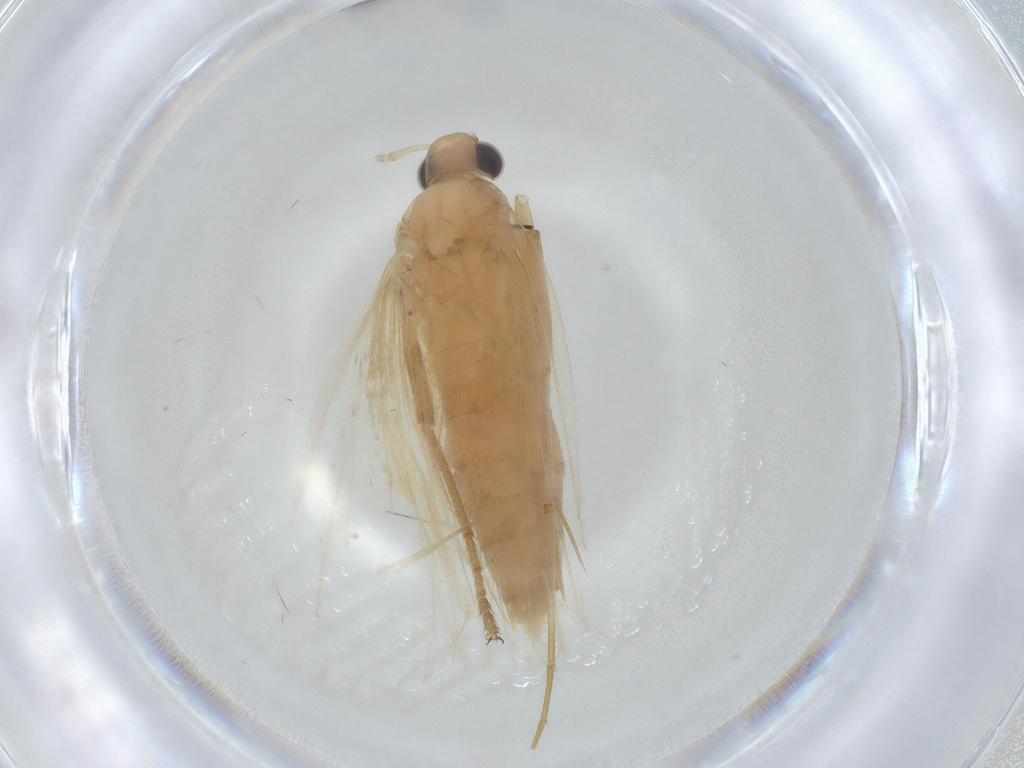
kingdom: Animalia
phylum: Arthropoda
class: Insecta
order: Lepidoptera
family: Lecithoceridae
